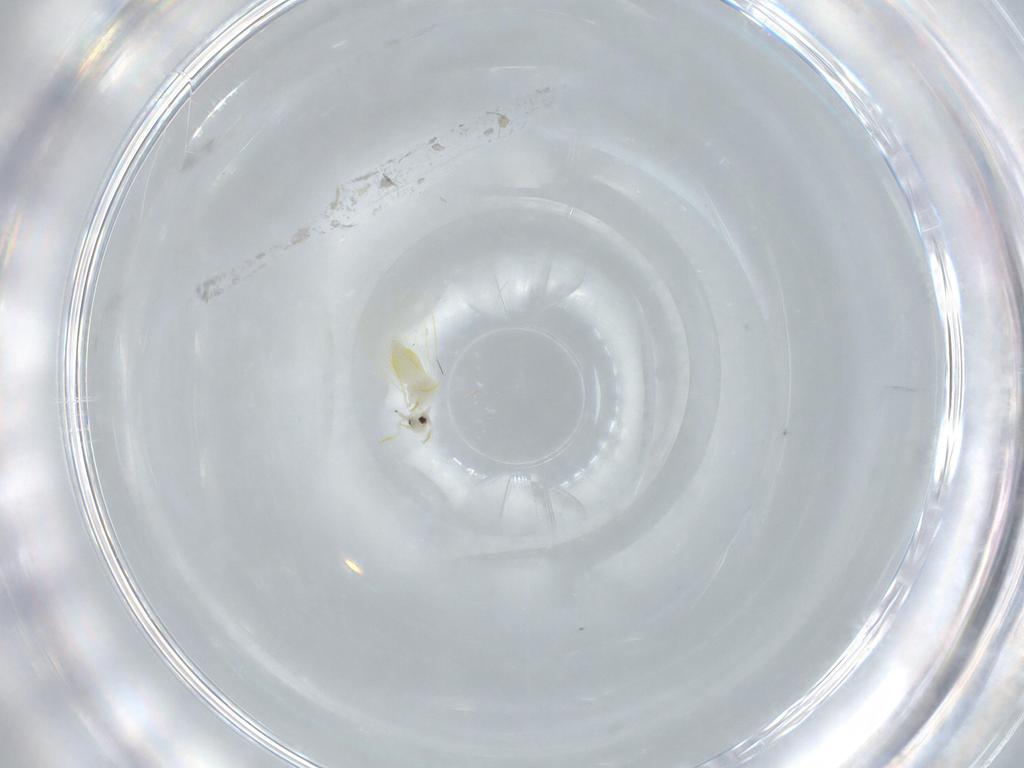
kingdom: Animalia
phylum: Arthropoda
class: Insecta
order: Hemiptera
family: Aleyrodidae
